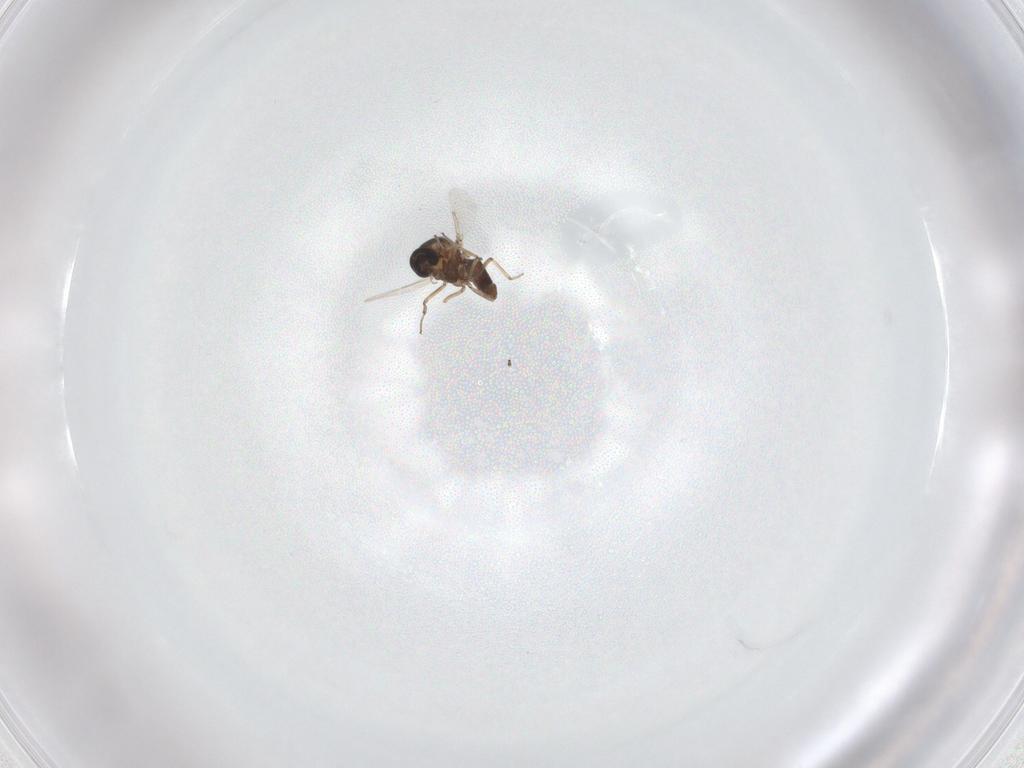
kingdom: Animalia
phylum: Arthropoda
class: Insecta
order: Diptera
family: Ceratopogonidae
